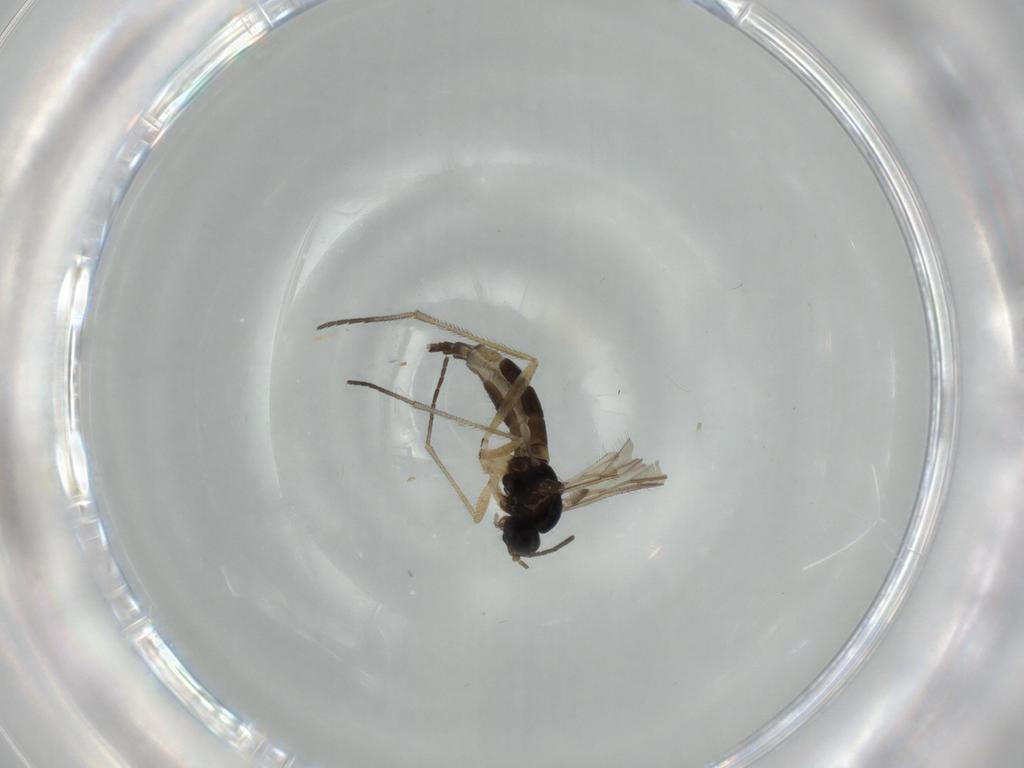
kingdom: Animalia
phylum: Arthropoda
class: Insecta
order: Diptera
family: Sciaridae
